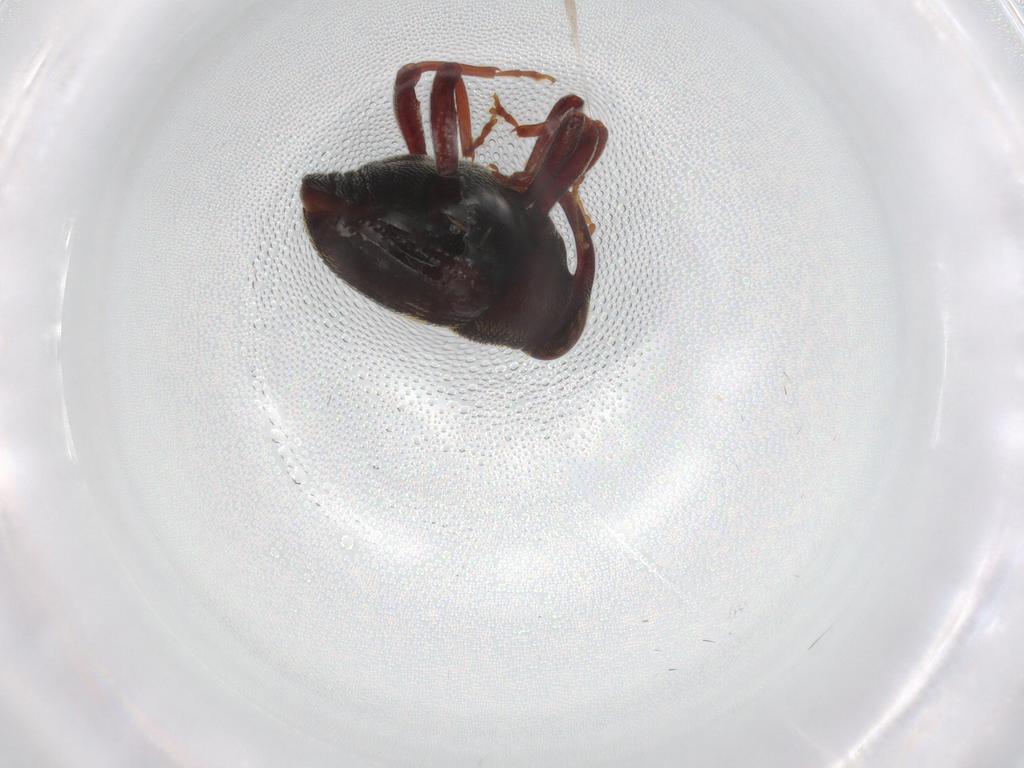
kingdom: Animalia
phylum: Arthropoda
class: Insecta
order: Coleoptera
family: Curculionidae
